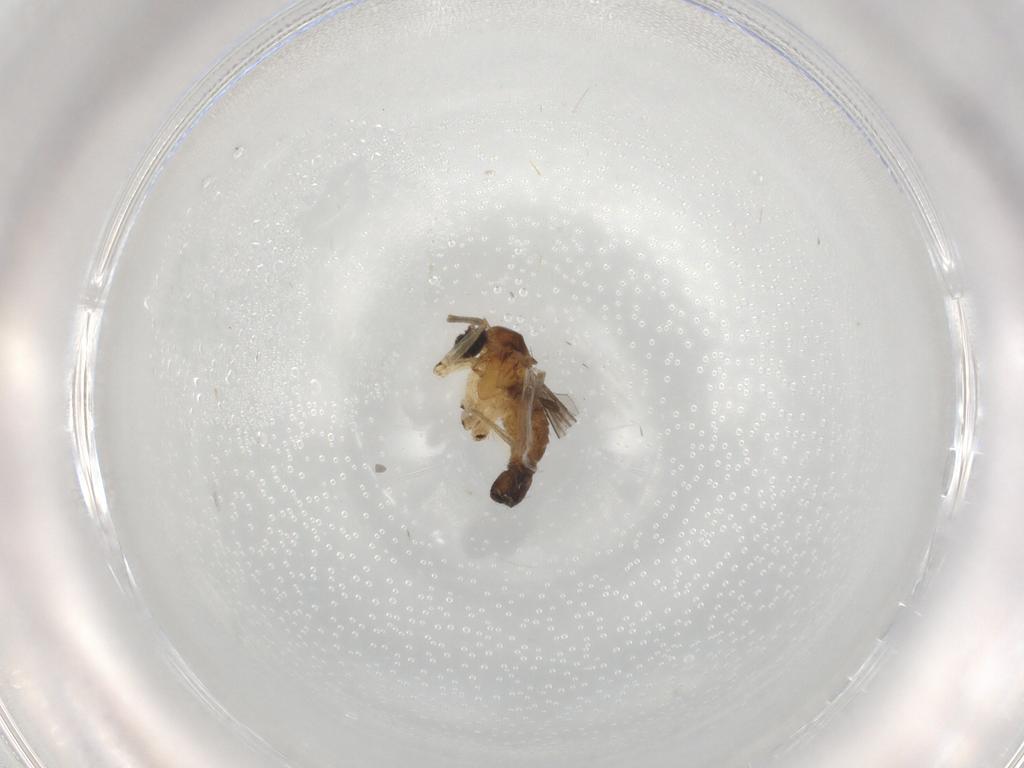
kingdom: Animalia
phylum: Arthropoda
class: Insecta
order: Diptera
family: Sciaridae
